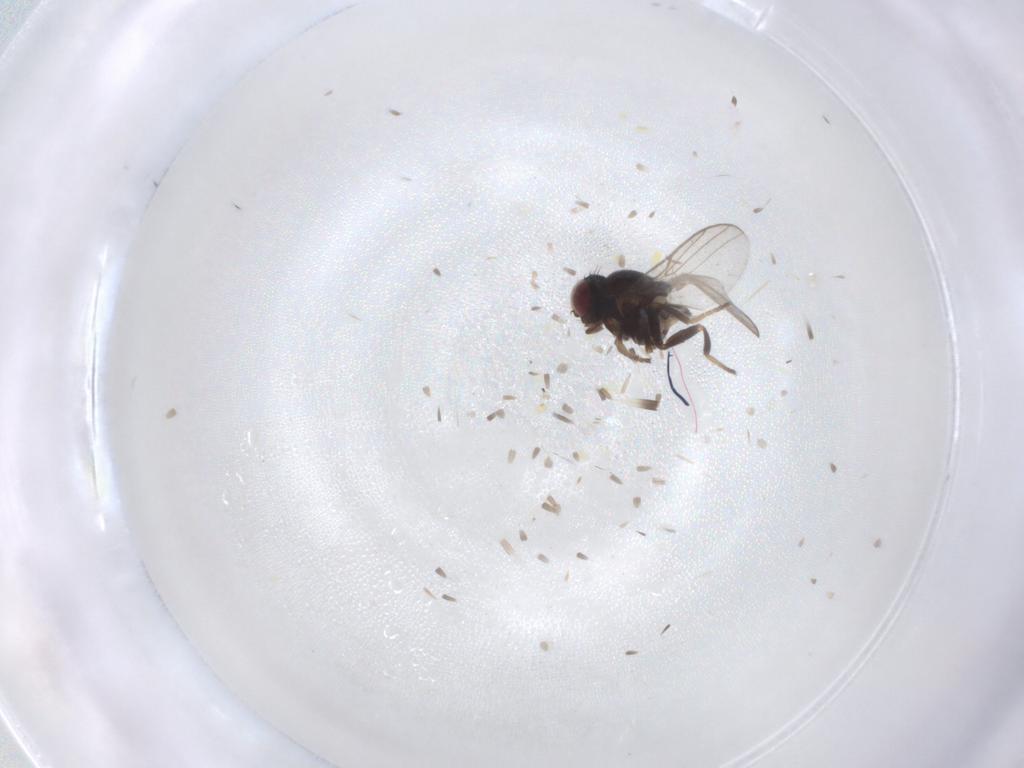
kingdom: Animalia
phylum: Arthropoda
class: Insecta
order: Diptera
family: Chloropidae
